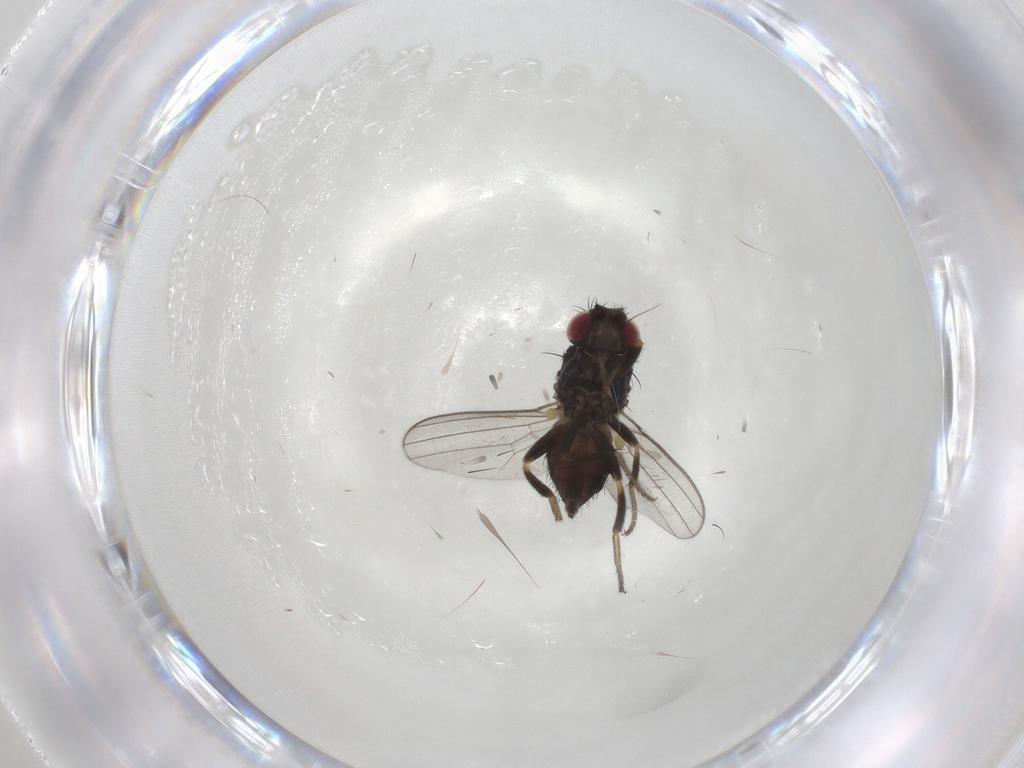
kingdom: Animalia
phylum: Arthropoda
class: Insecta
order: Diptera
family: Milichiidae
